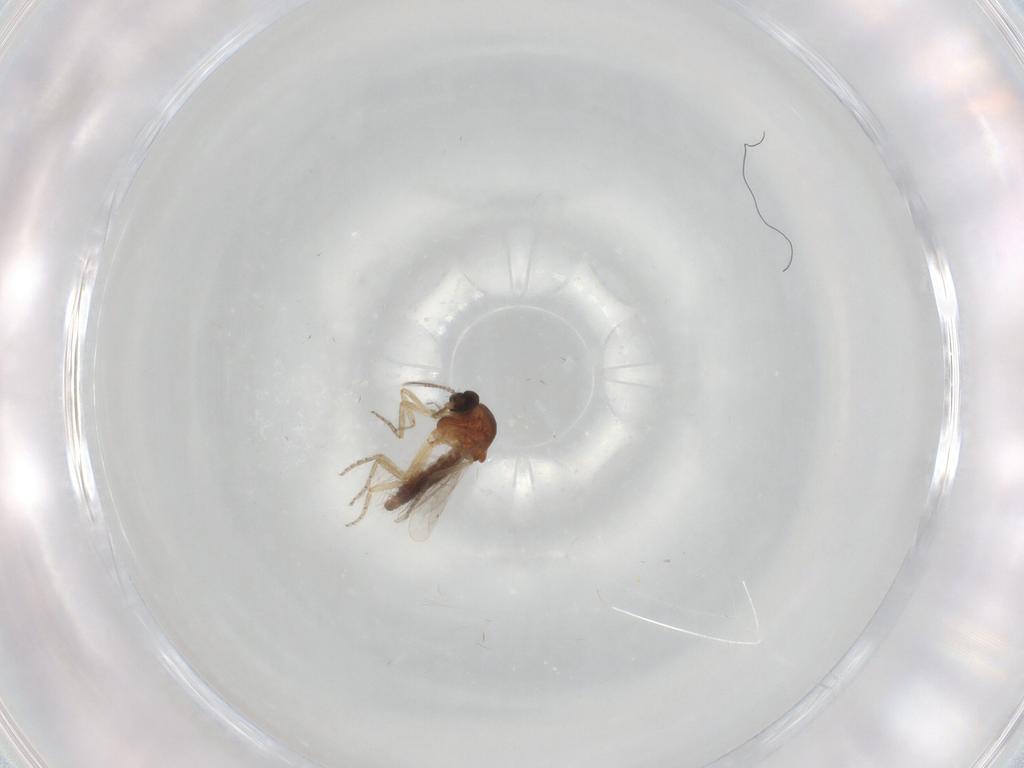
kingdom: Animalia
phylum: Arthropoda
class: Insecta
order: Diptera
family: Ceratopogonidae
